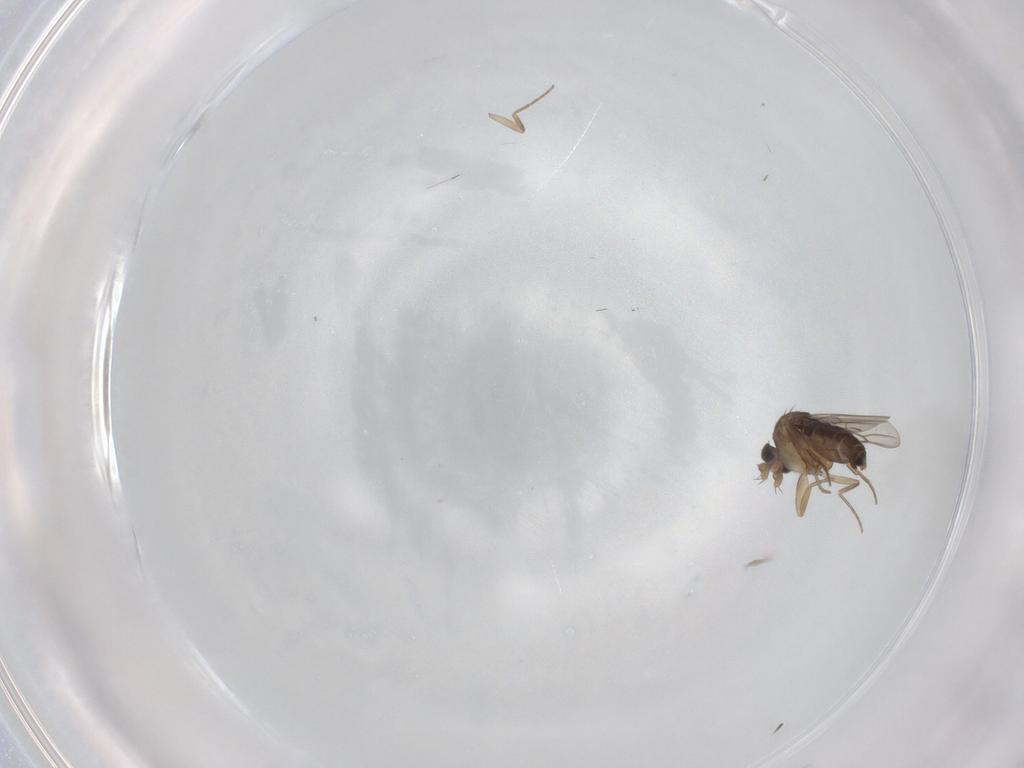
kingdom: Animalia
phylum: Arthropoda
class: Insecta
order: Diptera
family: Phoridae
